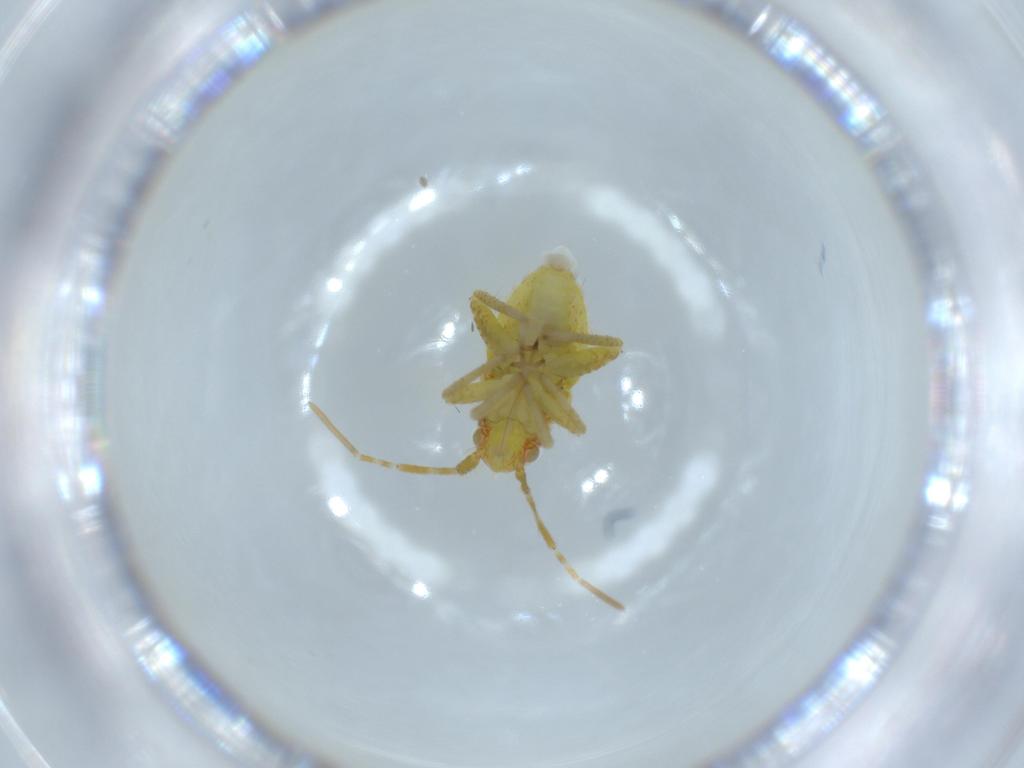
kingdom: Animalia
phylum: Arthropoda
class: Insecta
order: Hemiptera
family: Miridae
